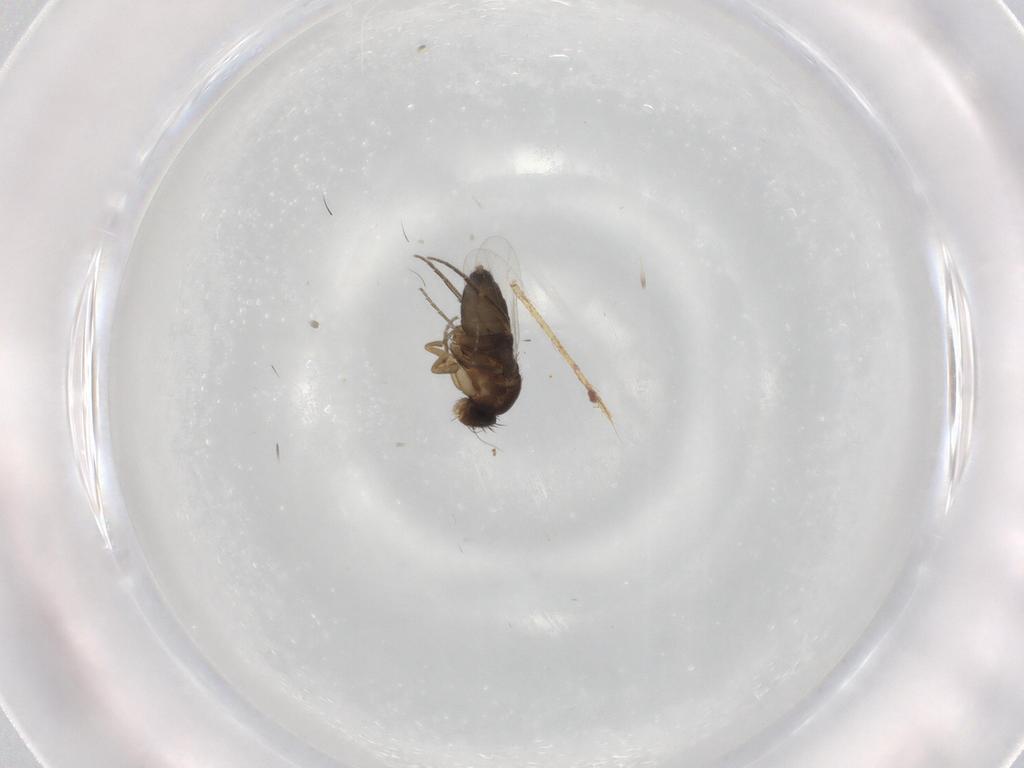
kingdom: Animalia
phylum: Arthropoda
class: Insecta
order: Diptera
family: Phoridae
